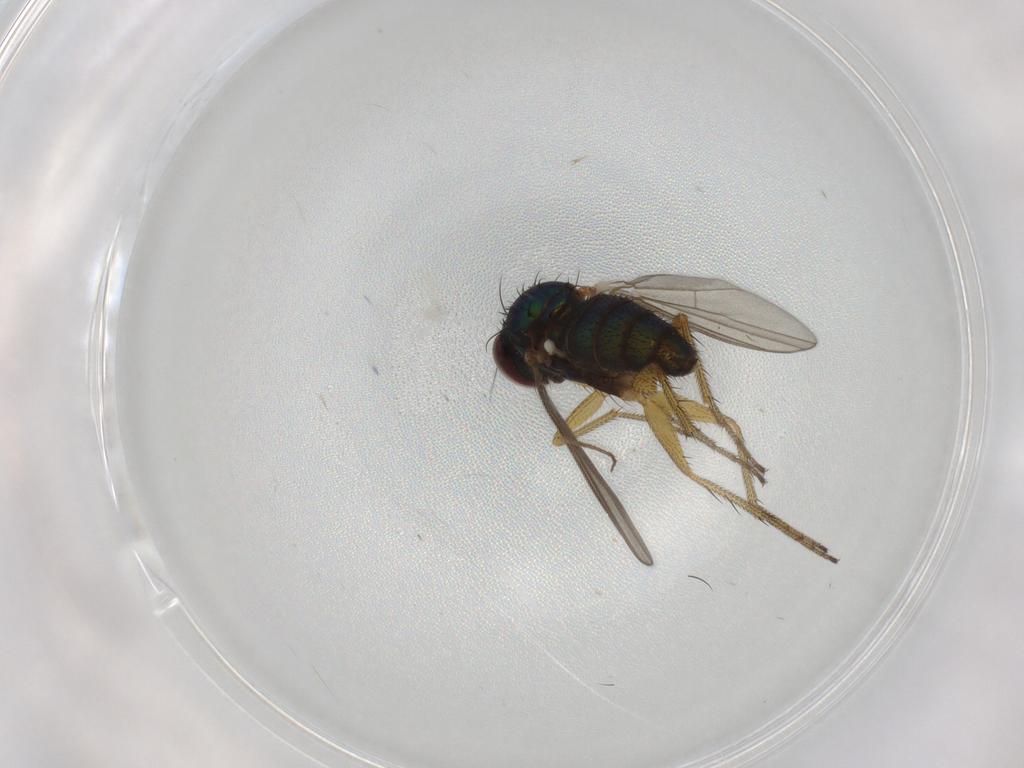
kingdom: Animalia
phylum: Arthropoda
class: Insecta
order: Diptera
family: Dolichopodidae
